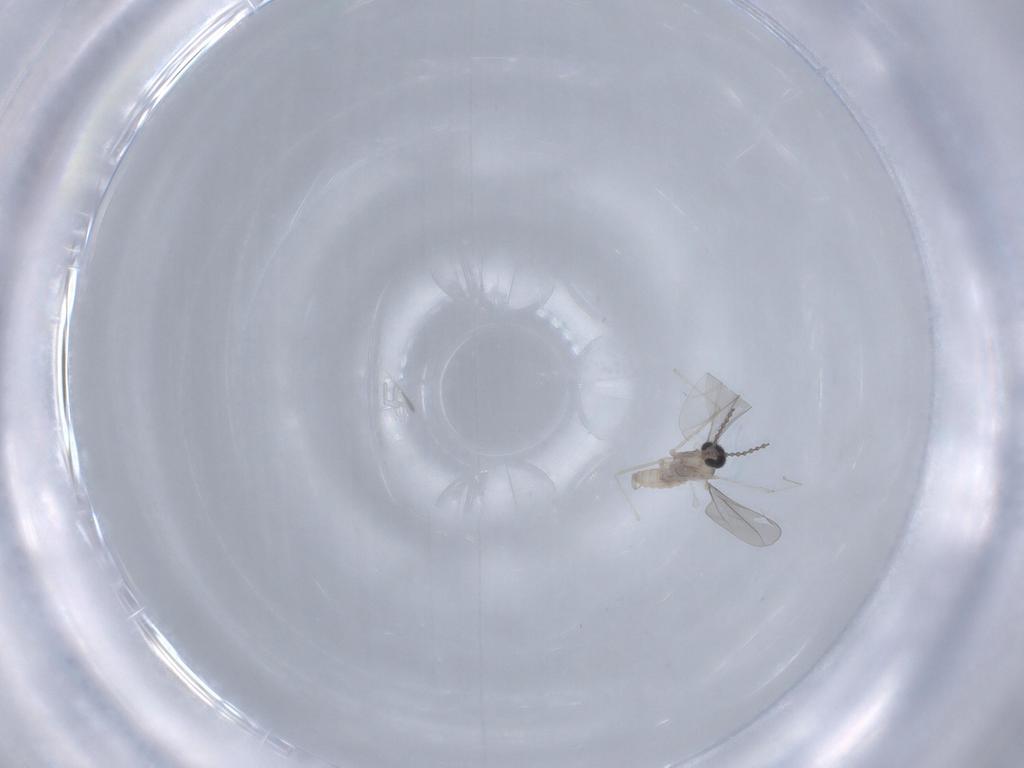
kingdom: Animalia
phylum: Arthropoda
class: Insecta
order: Diptera
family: Cecidomyiidae
